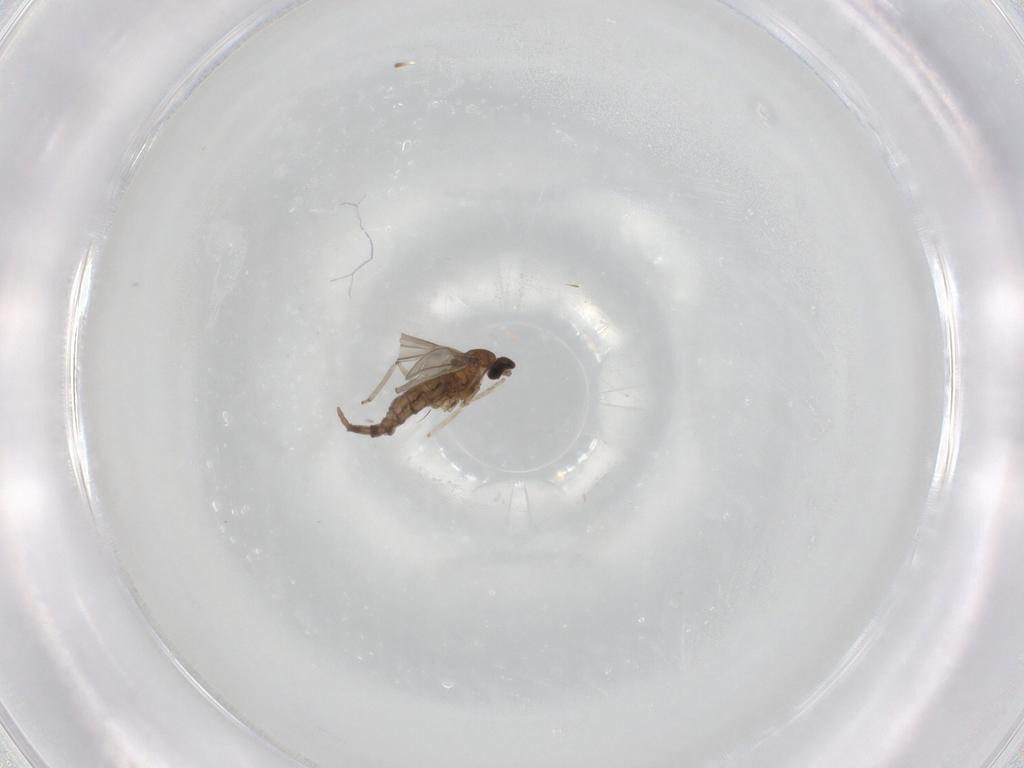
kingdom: Animalia
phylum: Arthropoda
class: Insecta
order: Diptera
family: Cecidomyiidae
